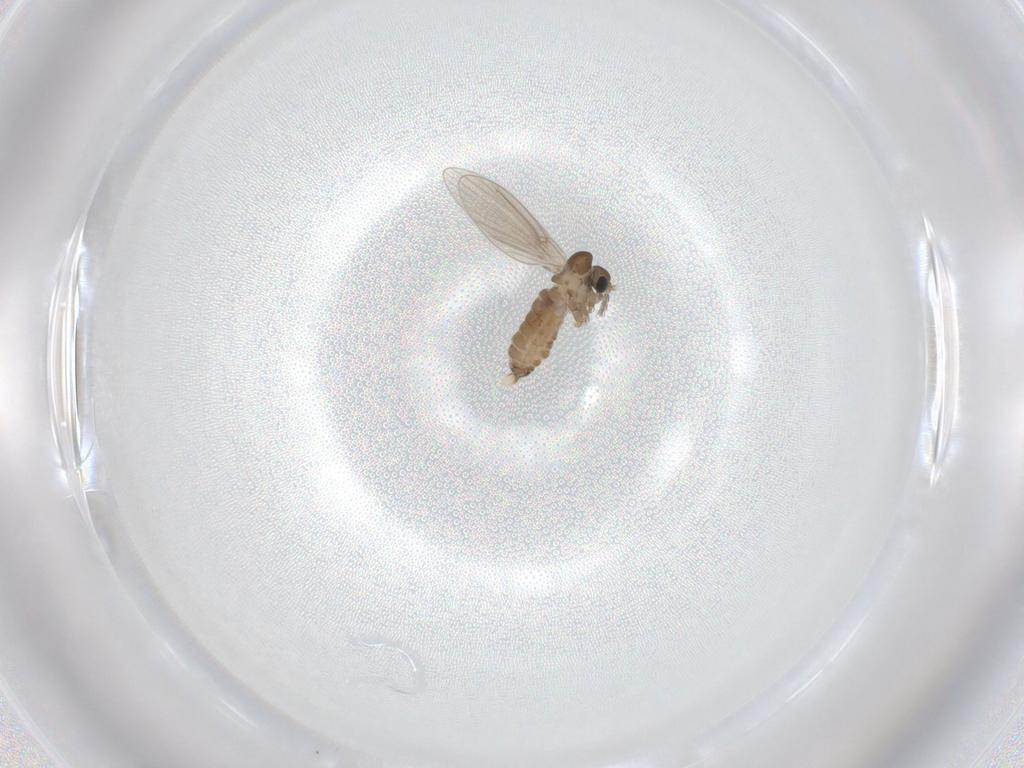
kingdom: Animalia
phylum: Arthropoda
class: Insecta
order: Diptera
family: Psychodidae
